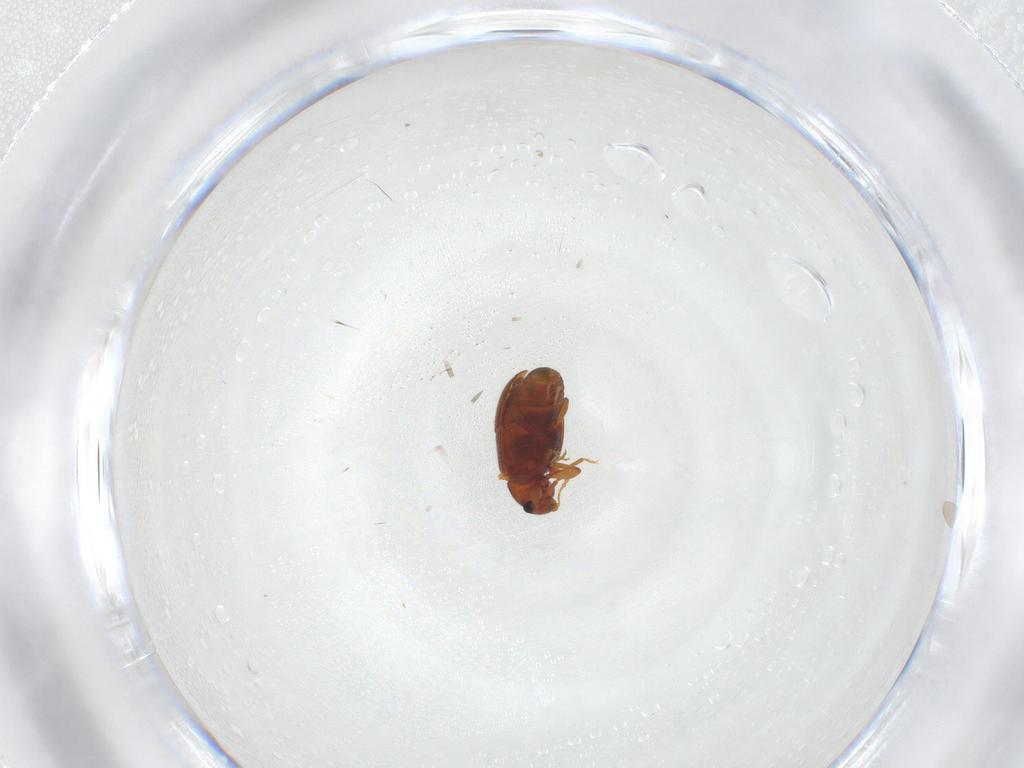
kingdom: Animalia
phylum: Arthropoda
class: Insecta
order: Coleoptera
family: Latridiidae
